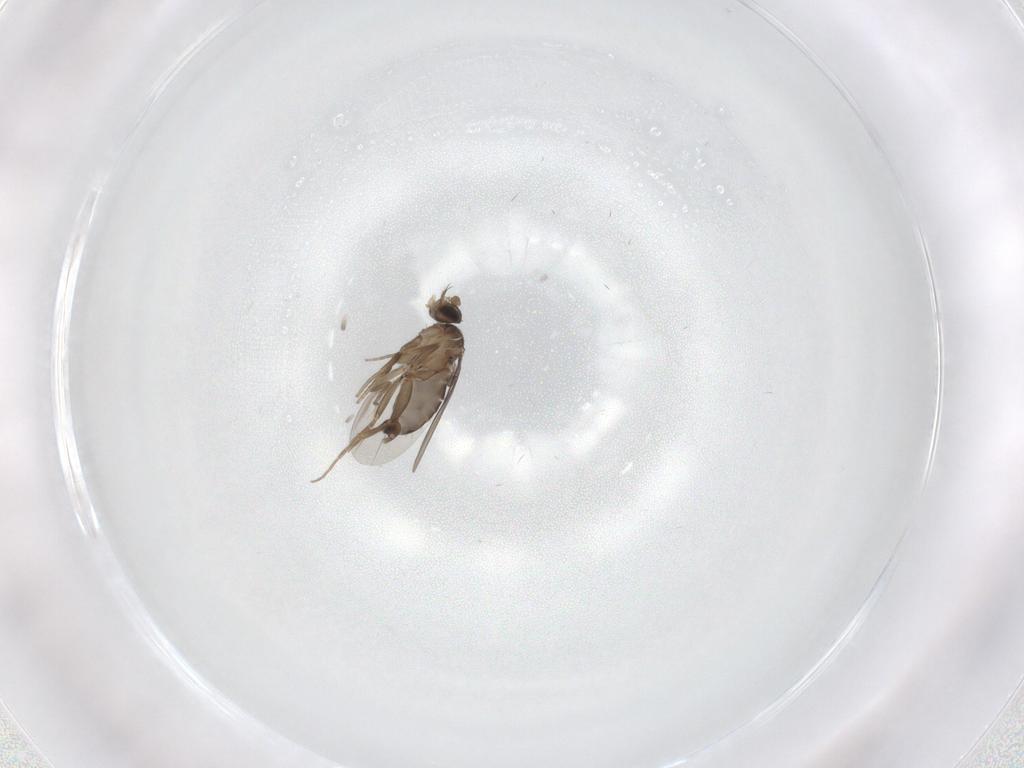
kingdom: Animalia
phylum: Arthropoda
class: Insecta
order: Diptera
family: Phoridae
